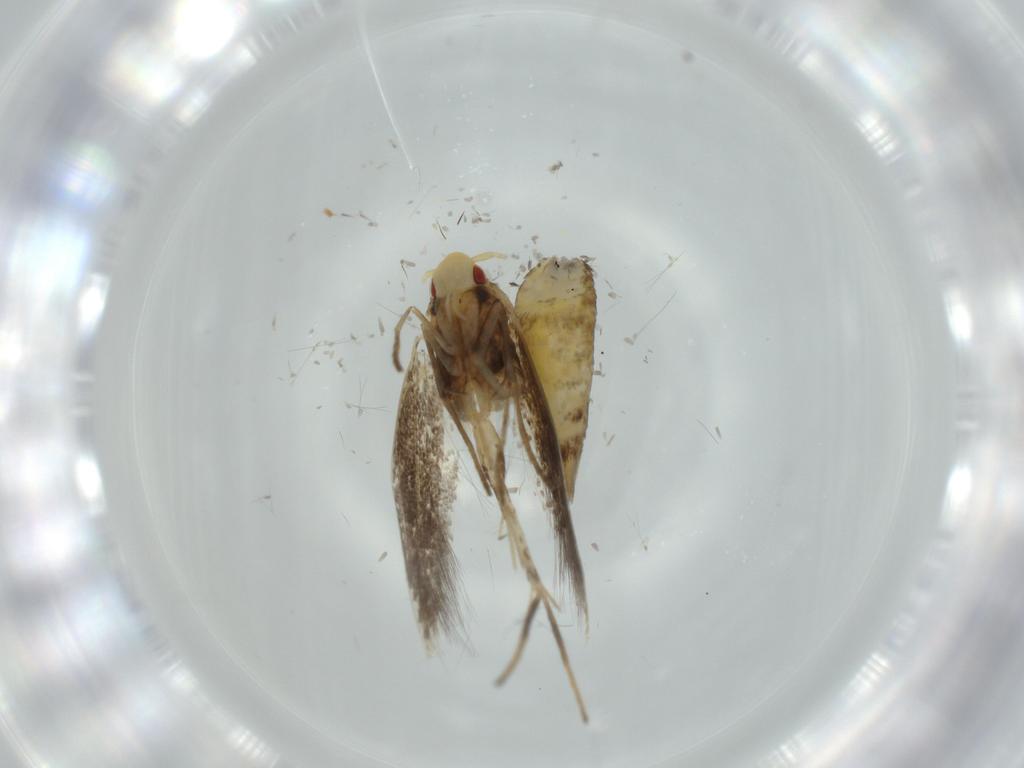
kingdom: Animalia
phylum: Arthropoda
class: Insecta
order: Lepidoptera
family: Cosmopterigidae
